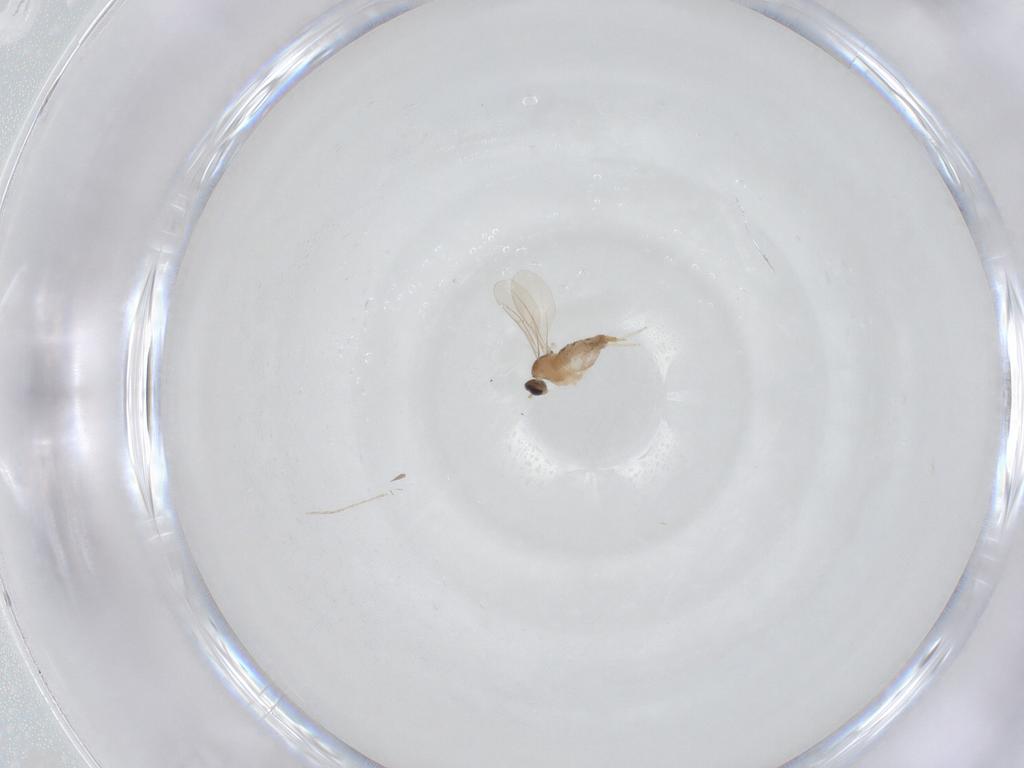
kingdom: Animalia
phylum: Arthropoda
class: Insecta
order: Diptera
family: Cecidomyiidae
